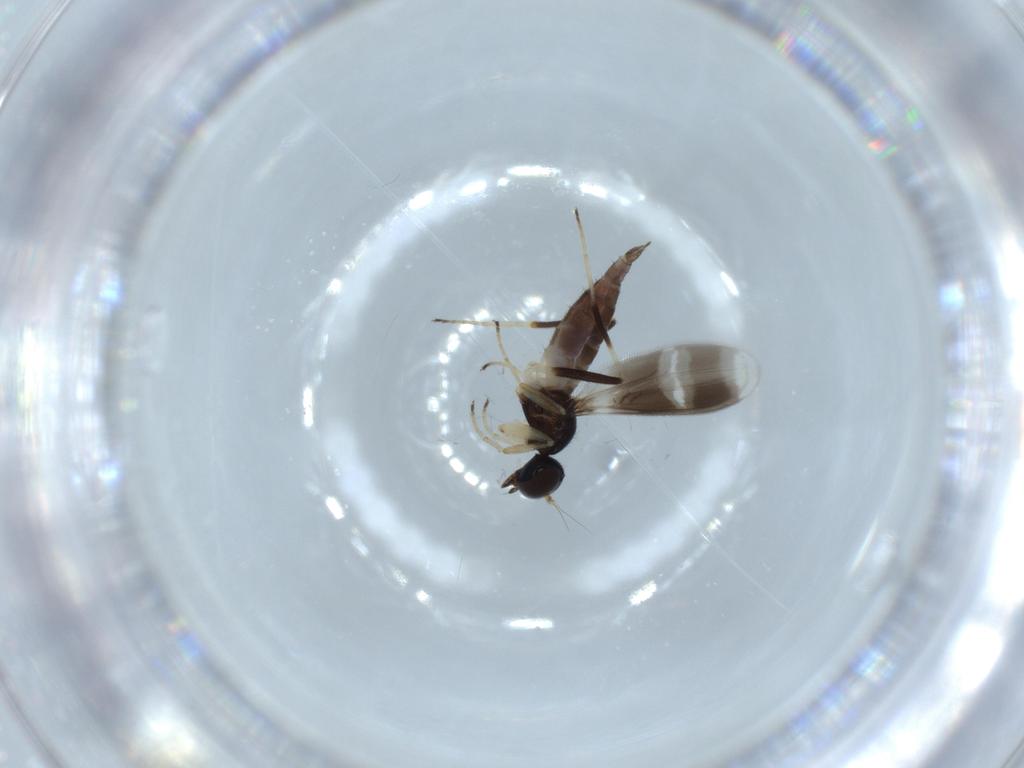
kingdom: Animalia
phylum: Arthropoda
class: Insecta
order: Diptera
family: Hybotidae
